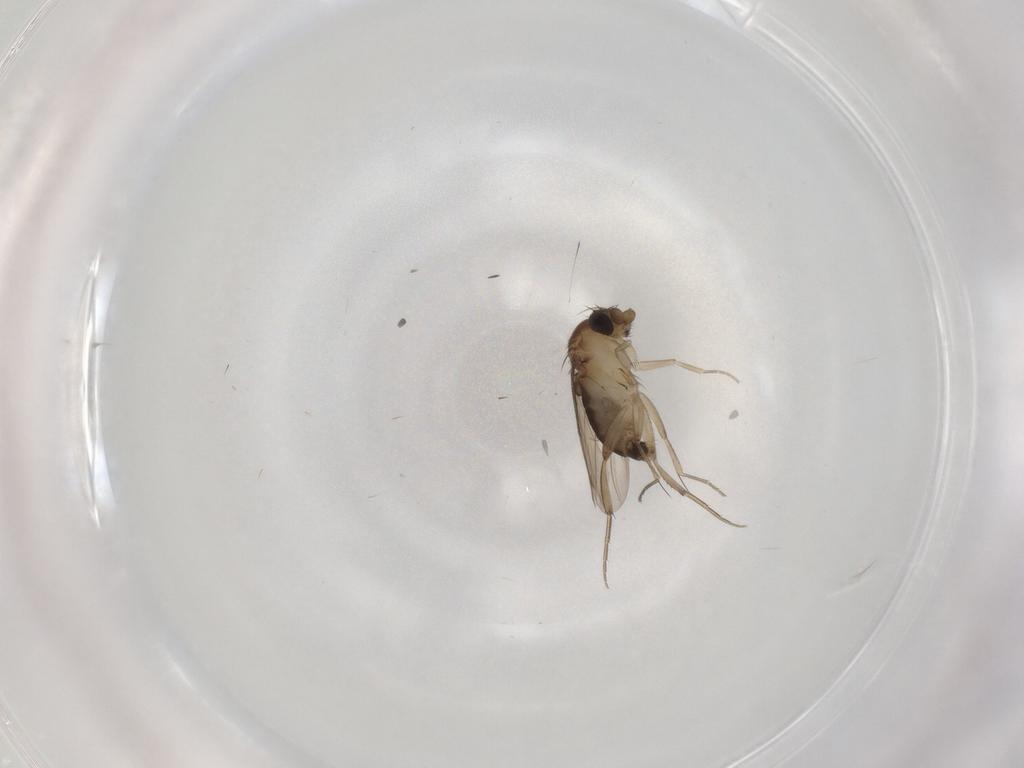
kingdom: Animalia
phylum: Arthropoda
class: Insecta
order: Diptera
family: Phoridae
